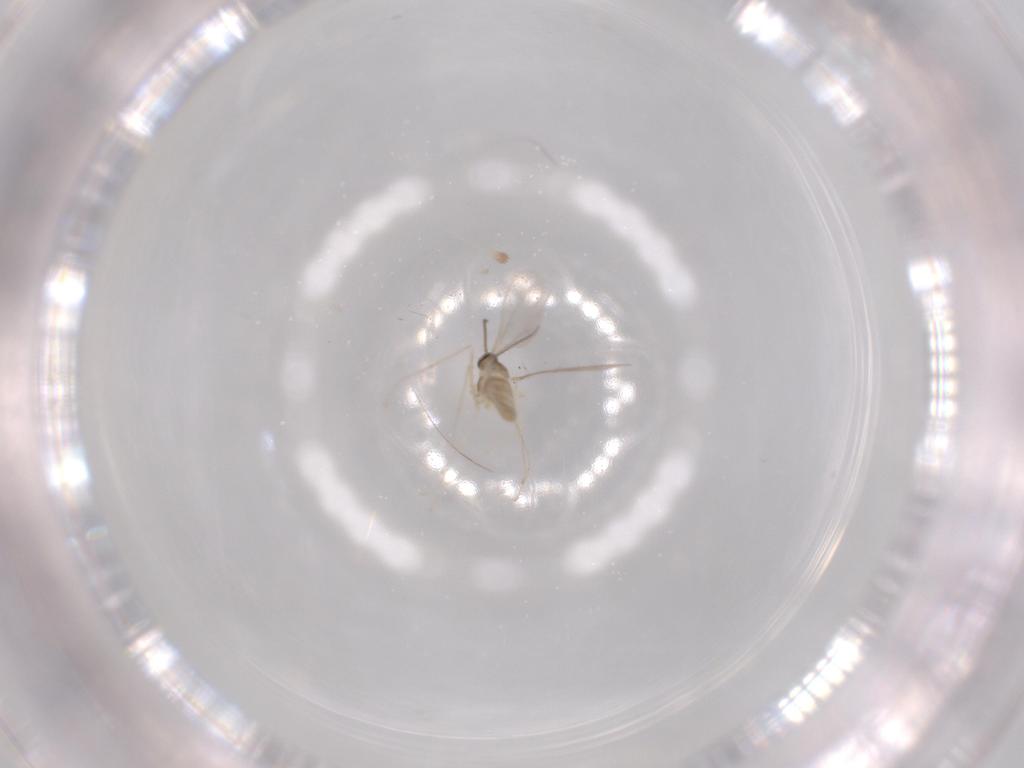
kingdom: Animalia
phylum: Arthropoda
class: Insecta
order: Diptera
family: Cecidomyiidae
